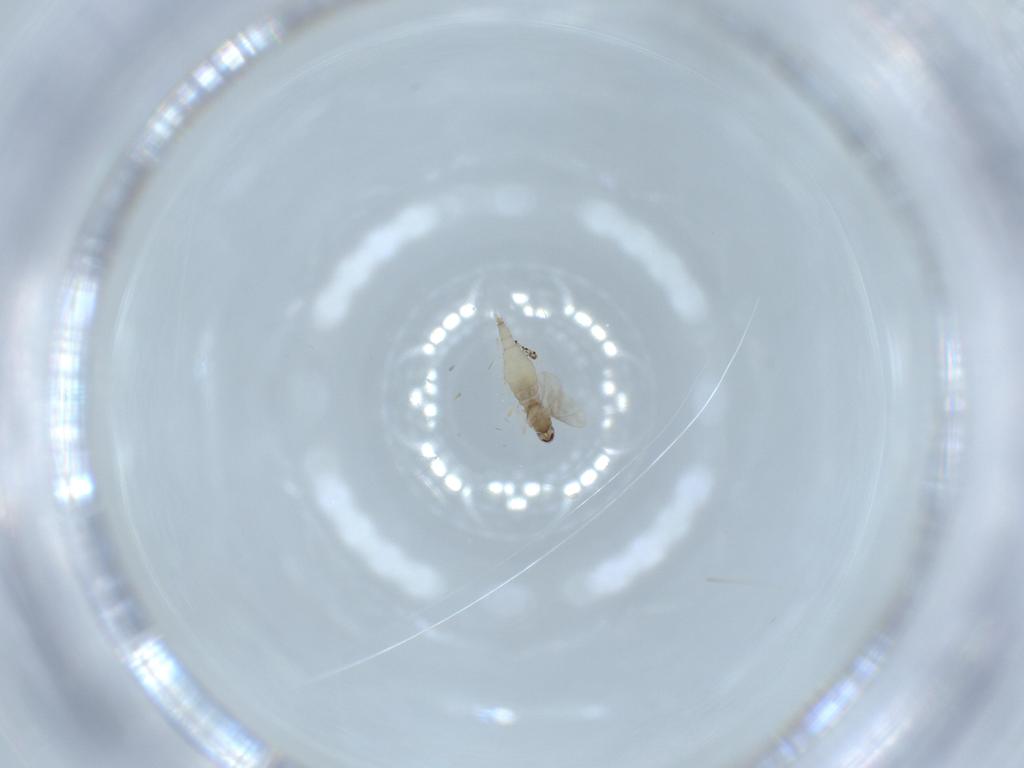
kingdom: Animalia
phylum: Arthropoda
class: Insecta
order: Diptera
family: Cecidomyiidae
